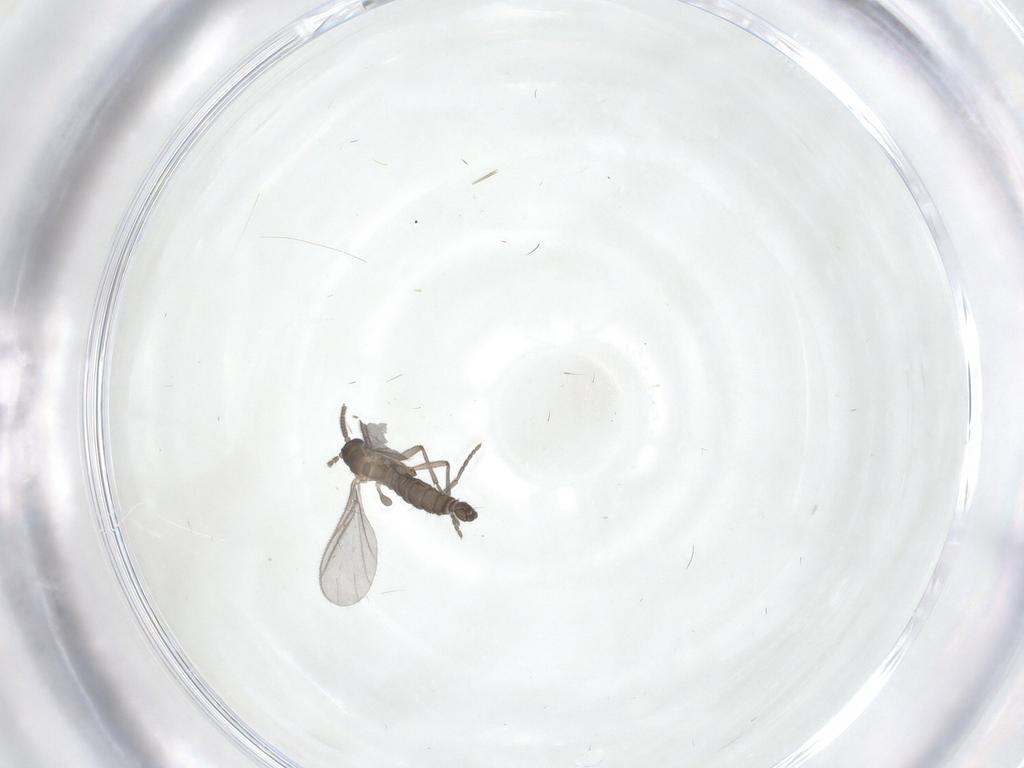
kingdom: Animalia
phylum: Arthropoda
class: Insecta
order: Diptera
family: Sciaridae
